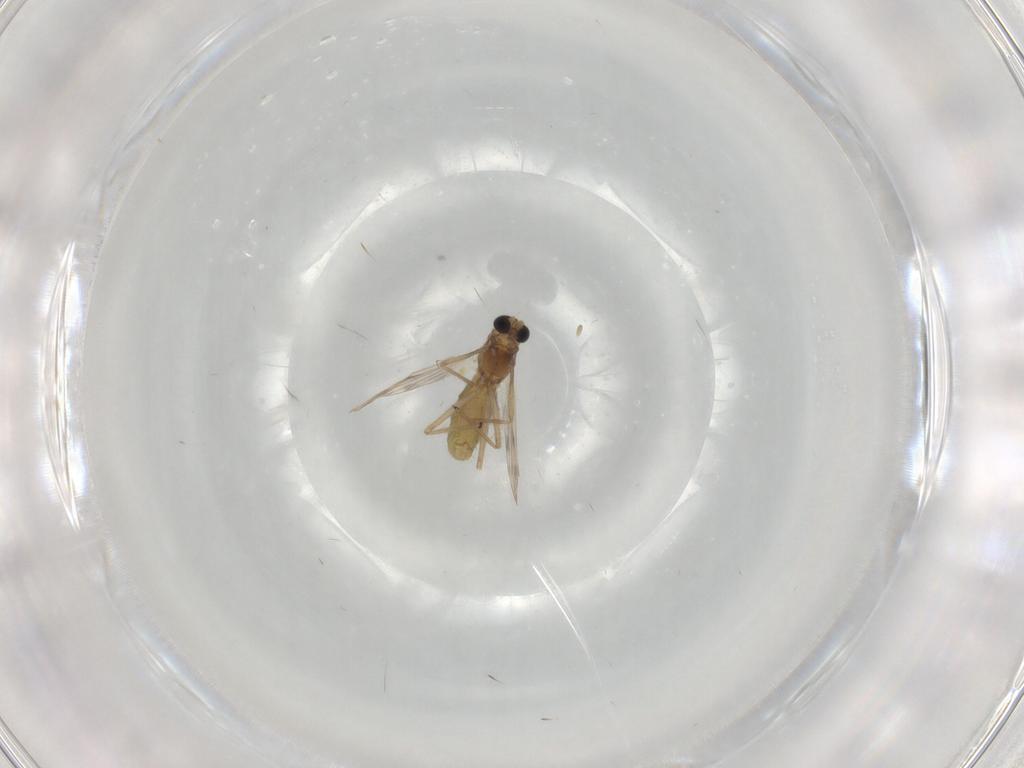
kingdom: Animalia
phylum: Arthropoda
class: Insecta
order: Diptera
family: Chironomidae
